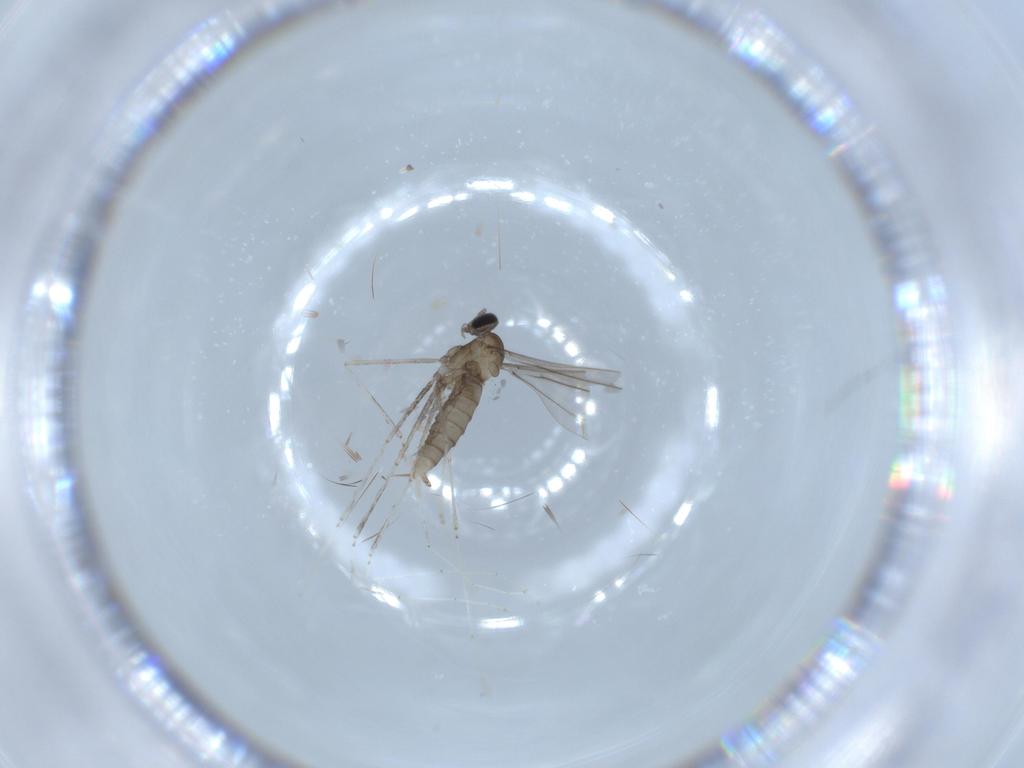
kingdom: Animalia
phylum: Arthropoda
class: Insecta
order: Diptera
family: Cecidomyiidae
